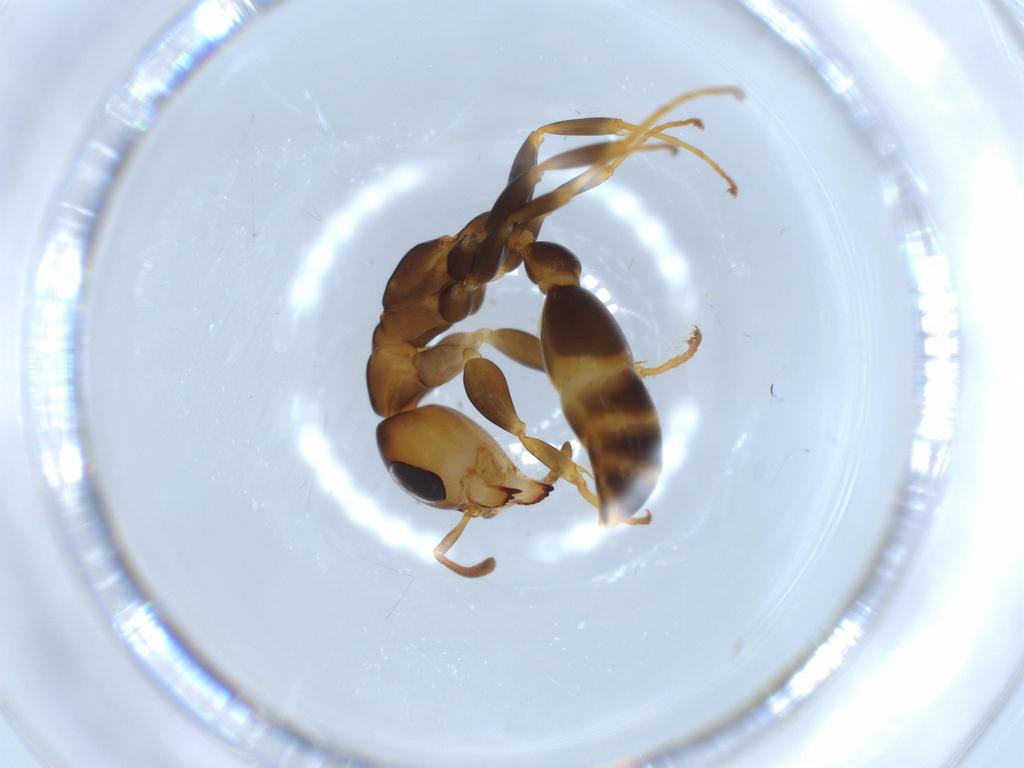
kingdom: Animalia
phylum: Arthropoda
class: Insecta
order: Hymenoptera
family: Formicidae
